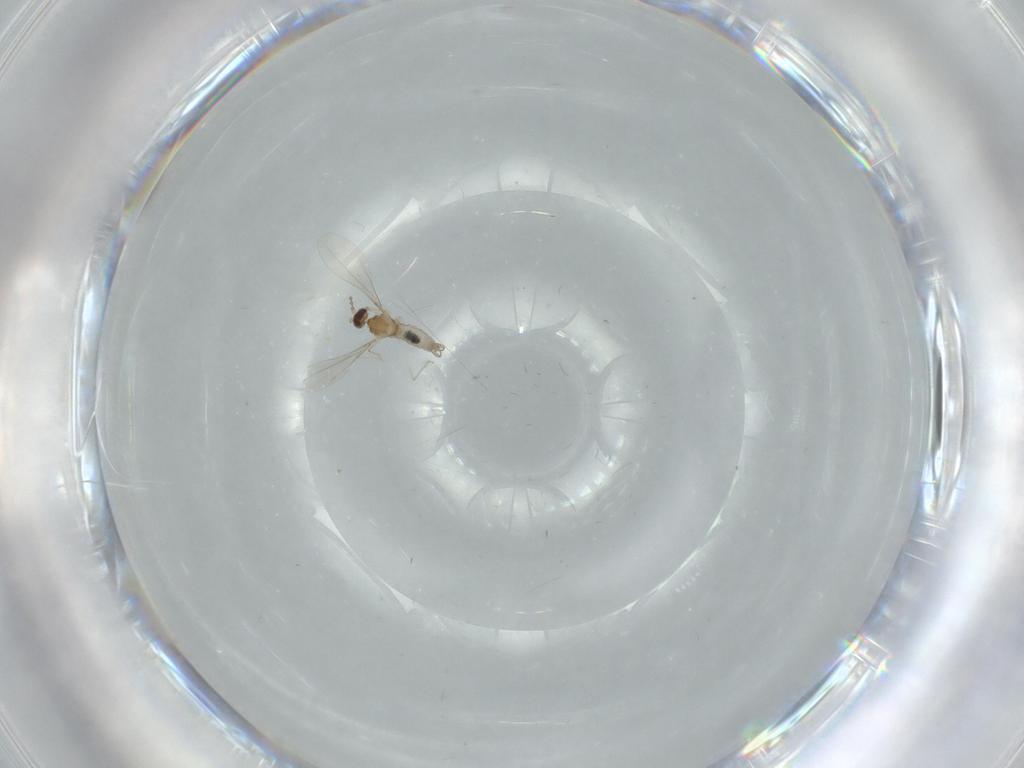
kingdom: Animalia
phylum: Arthropoda
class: Insecta
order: Diptera
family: Cecidomyiidae
